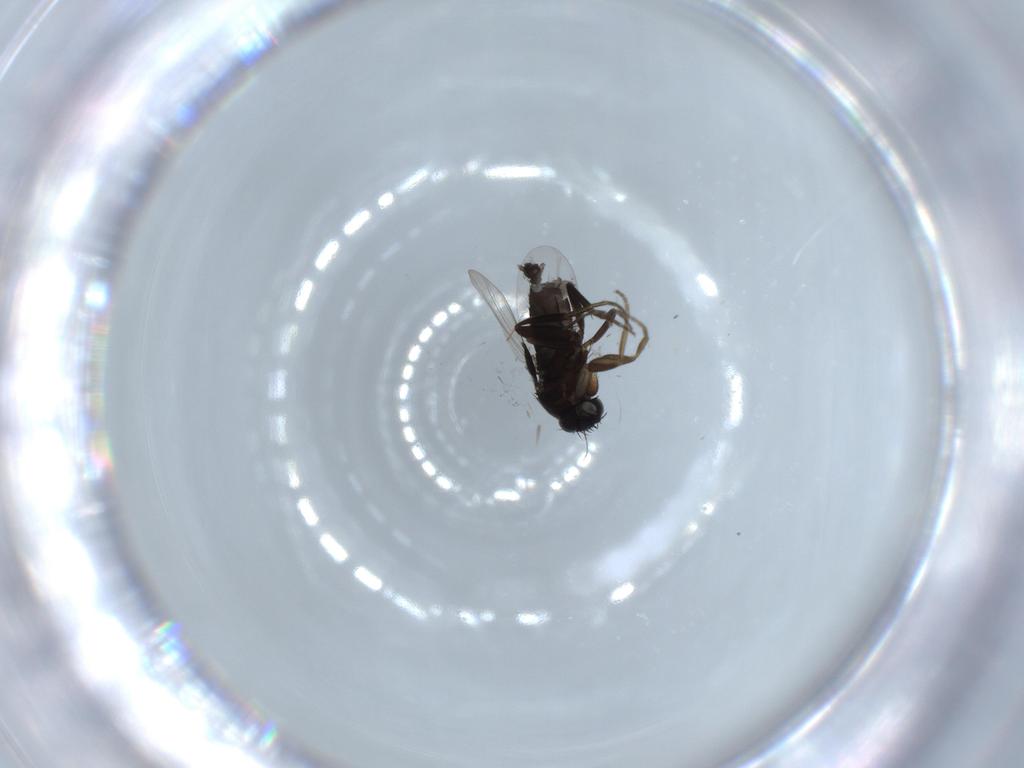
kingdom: Animalia
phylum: Arthropoda
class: Insecta
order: Diptera
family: Phoridae
